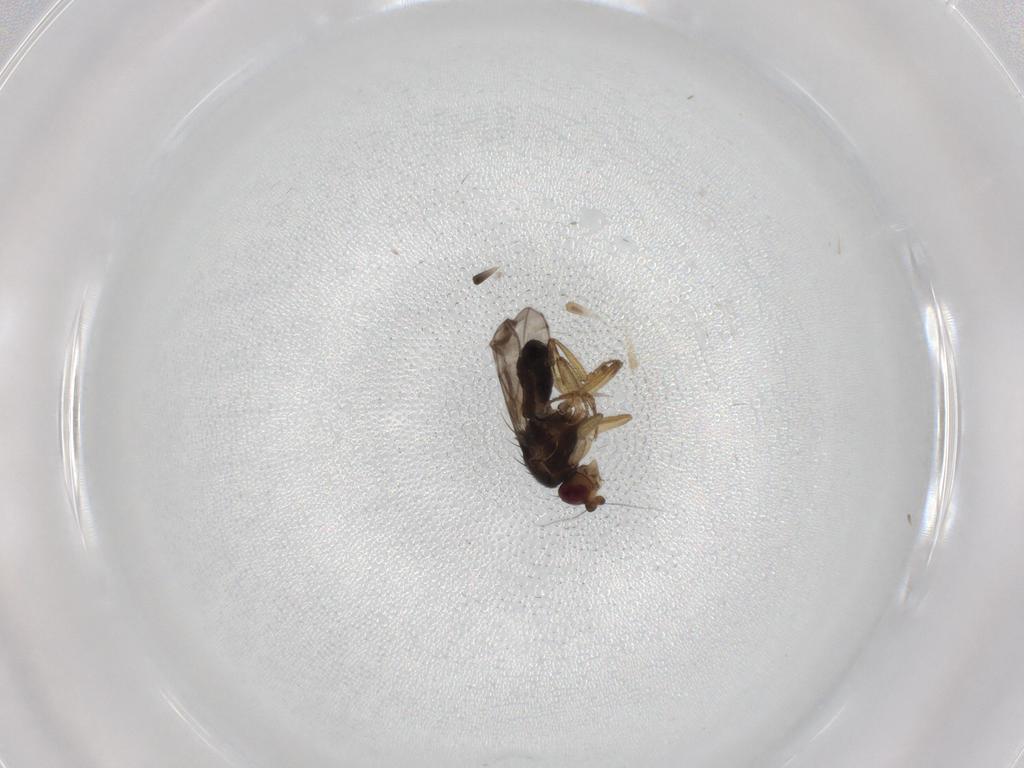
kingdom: Animalia
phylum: Arthropoda
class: Insecta
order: Diptera
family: Sphaeroceridae
